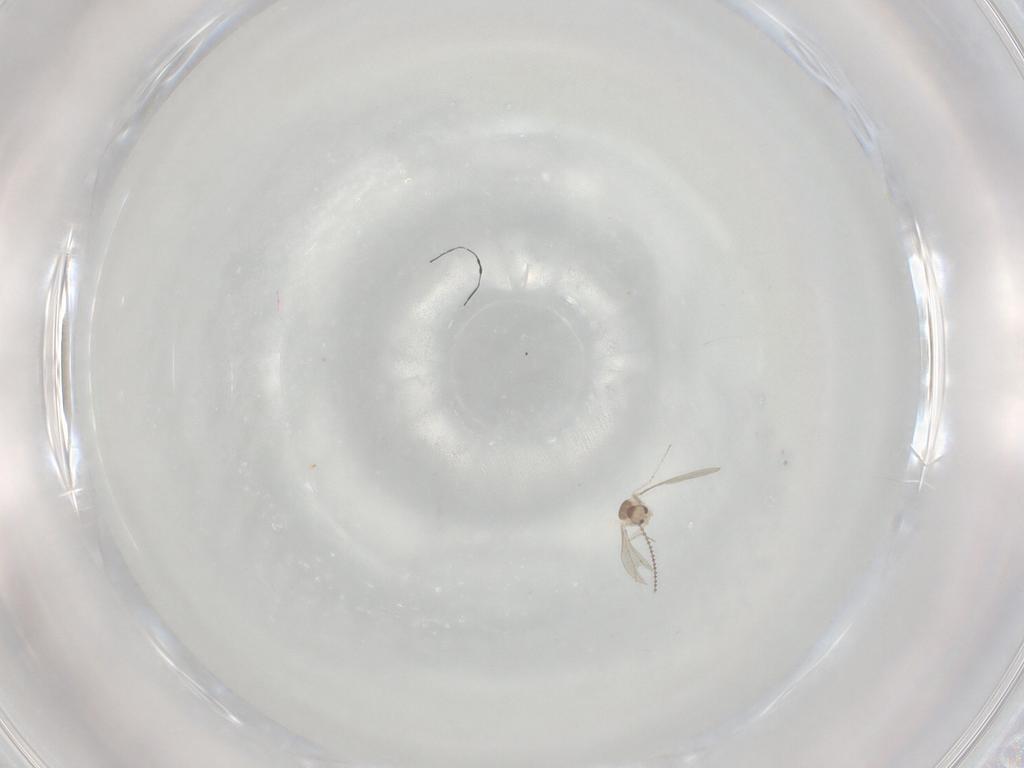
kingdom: Animalia
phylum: Arthropoda
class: Insecta
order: Diptera
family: Cecidomyiidae
